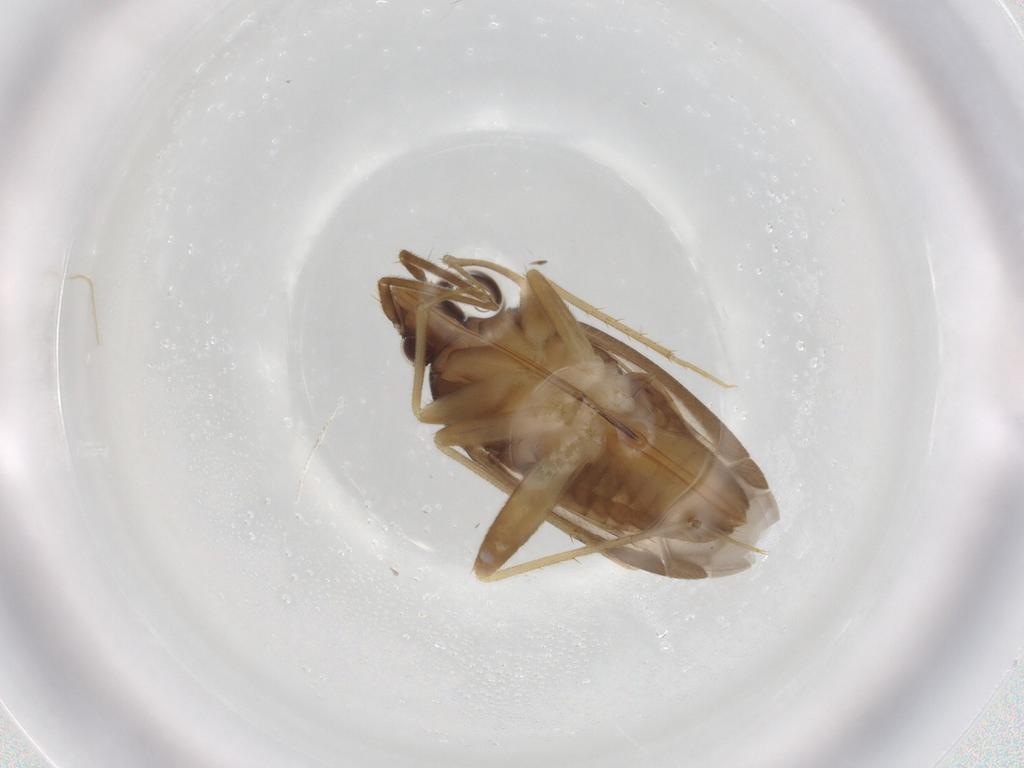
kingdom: Animalia
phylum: Arthropoda
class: Insecta
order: Hemiptera
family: Miridae
